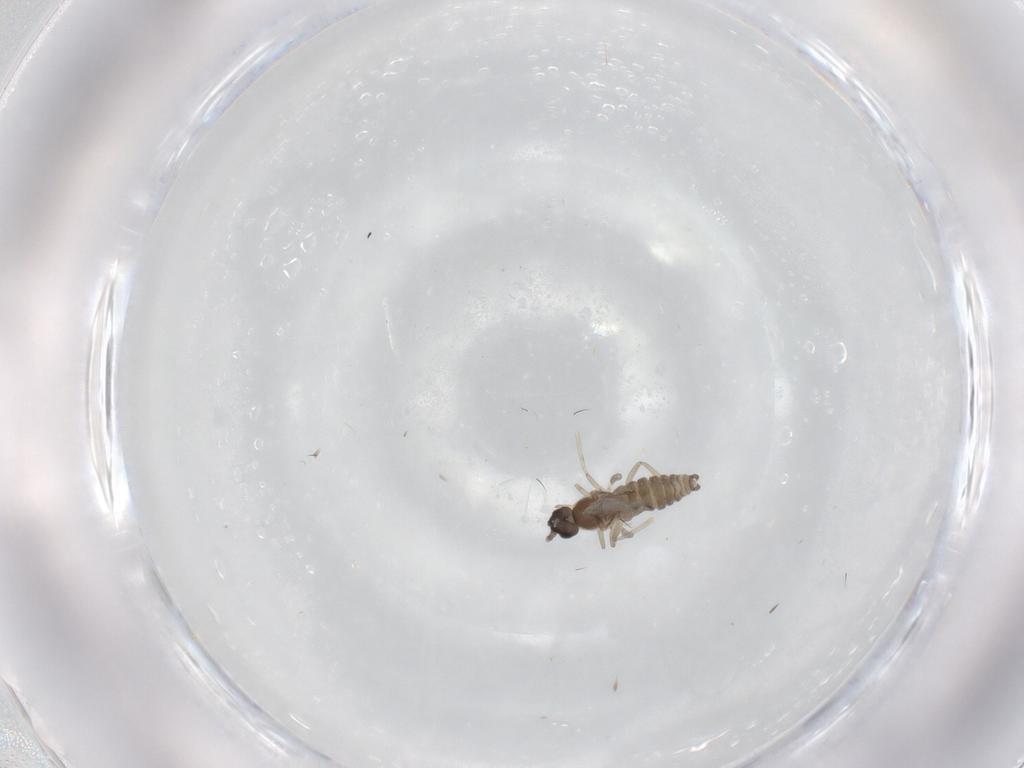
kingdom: Animalia
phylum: Arthropoda
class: Insecta
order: Diptera
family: Cecidomyiidae
